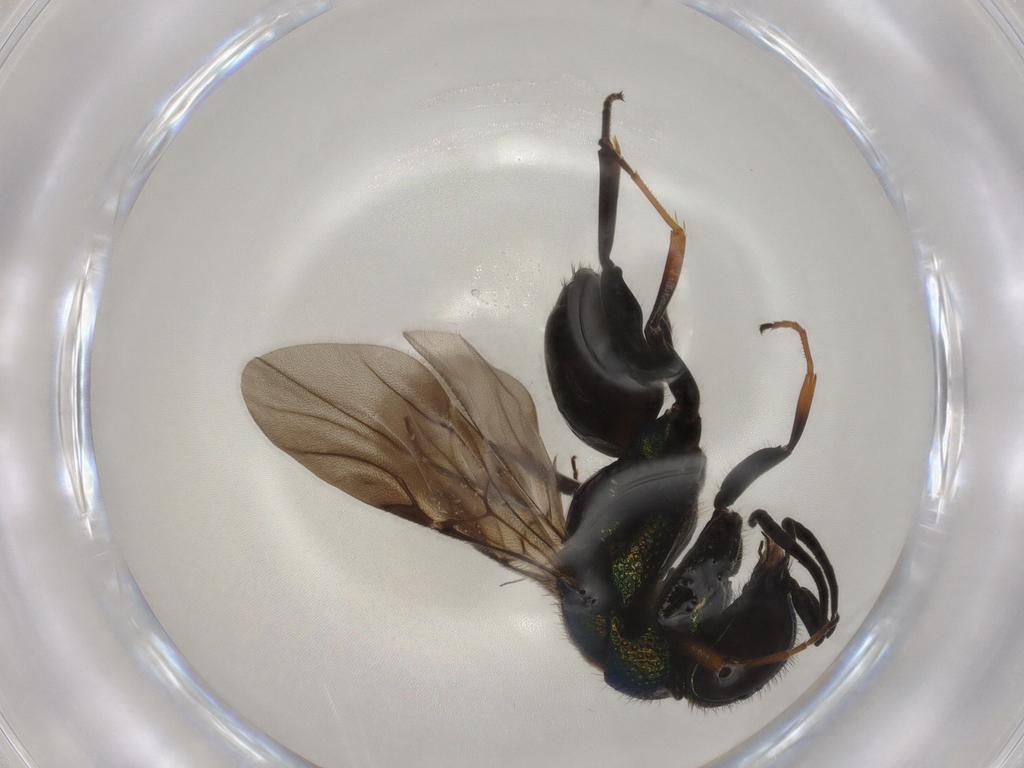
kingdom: Animalia
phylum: Arthropoda
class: Insecta
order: Hymenoptera
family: Chrysididae
